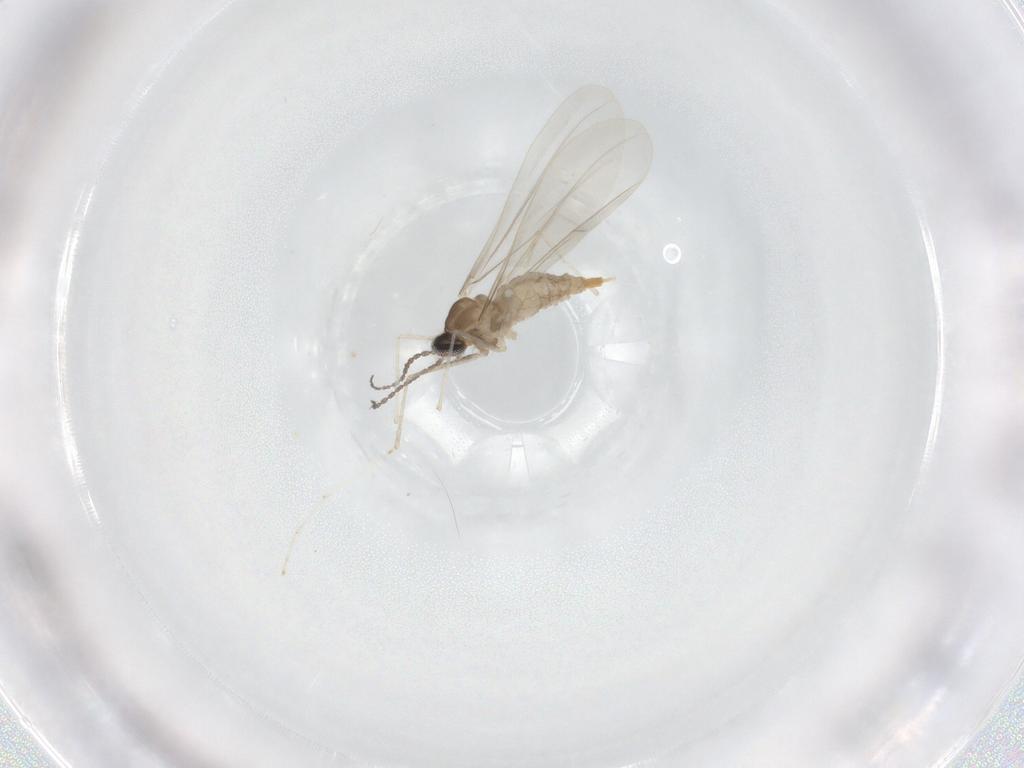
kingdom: Animalia
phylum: Arthropoda
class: Insecta
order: Diptera
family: Cecidomyiidae
